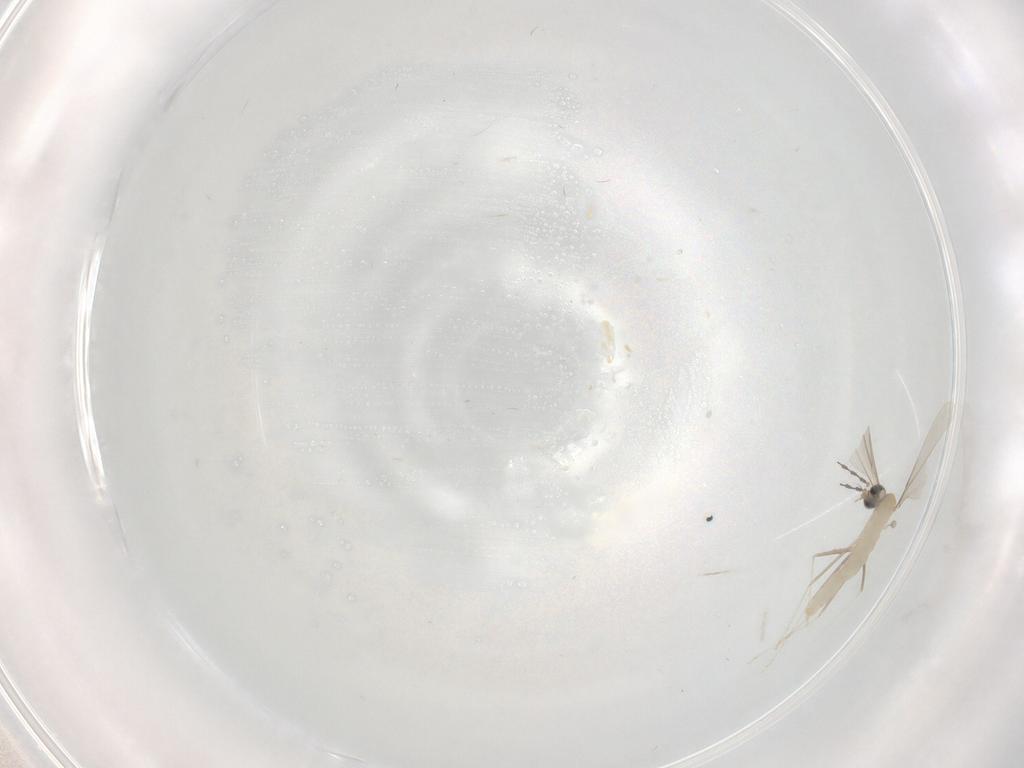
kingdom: Animalia
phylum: Arthropoda
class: Insecta
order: Diptera
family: Cecidomyiidae
